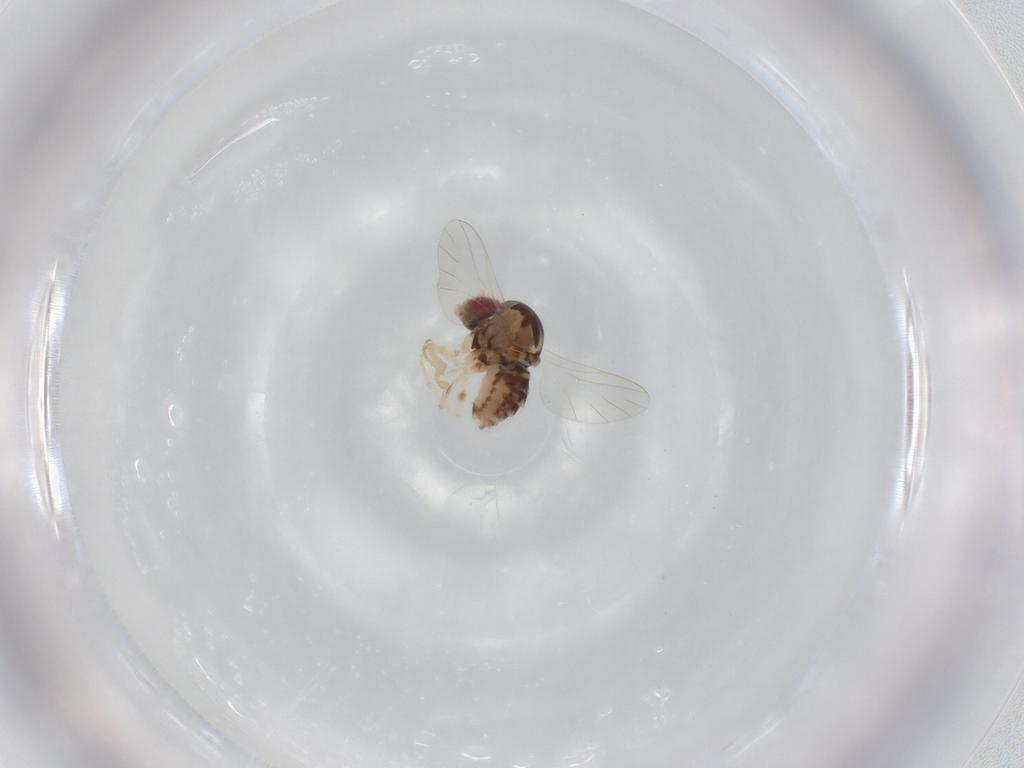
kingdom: Animalia
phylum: Arthropoda
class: Insecta
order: Diptera
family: Bombyliidae
